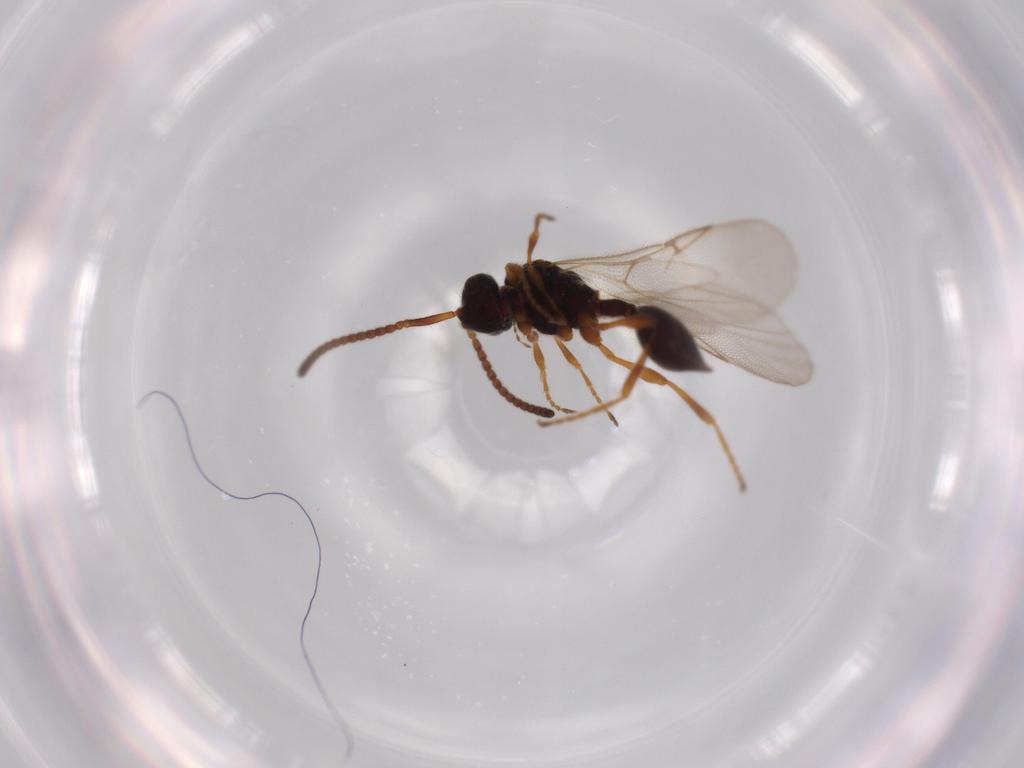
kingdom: Animalia
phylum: Arthropoda
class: Insecta
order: Hymenoptera
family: Diapriidae
